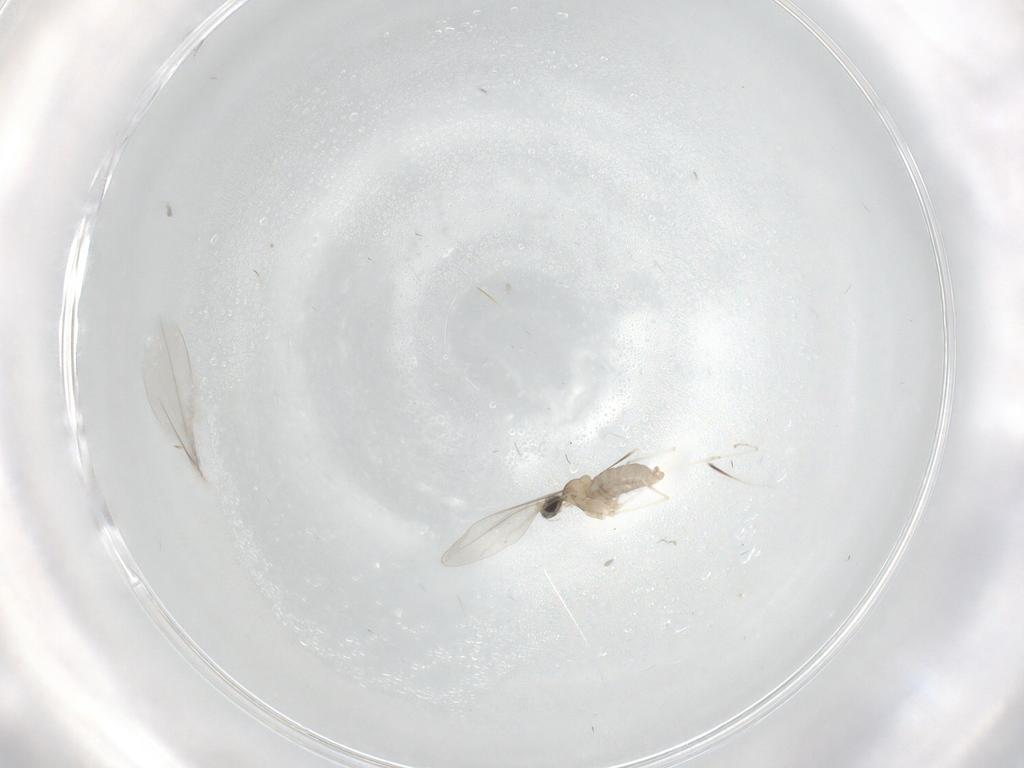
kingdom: Animalia
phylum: Arthropoda
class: Insecta
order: Diptera
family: Cecidomyiidae
